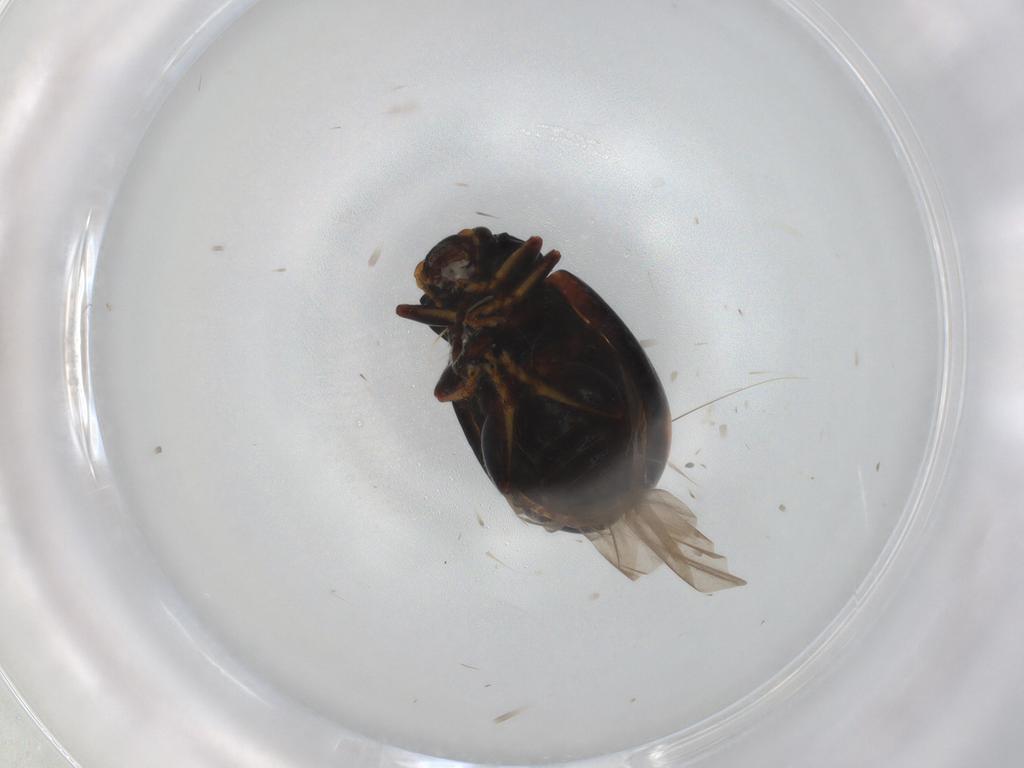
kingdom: Animalia
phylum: Arthropoda
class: Insecta
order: Coleoptera
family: Chrysomelidae
